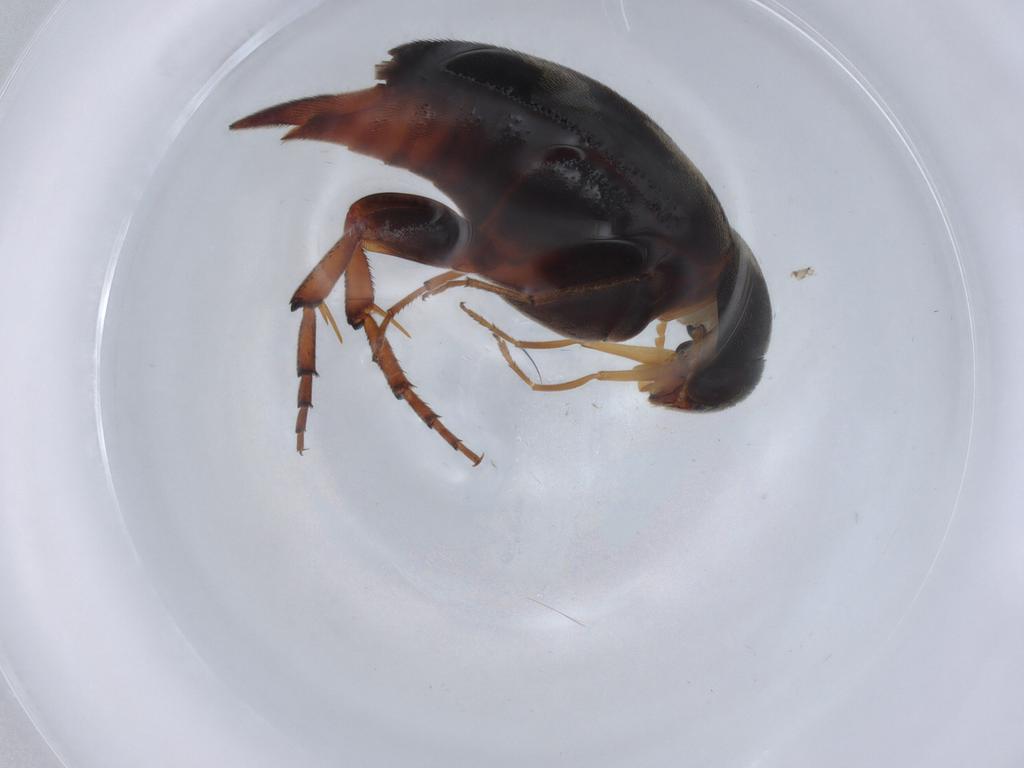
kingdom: Animalia
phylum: Arthropoda
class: Insecta
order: Coleoptera
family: Mordellidae
